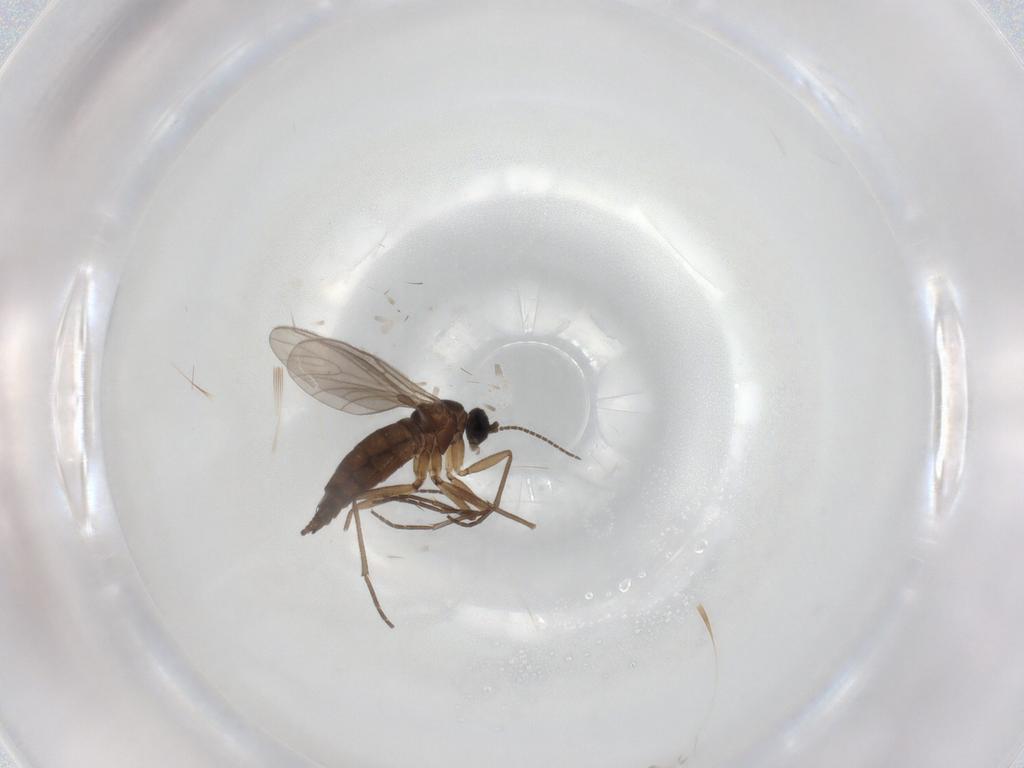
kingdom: Animalia
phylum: Arthropoda
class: Insecta
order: Diptera
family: Sciaridae
